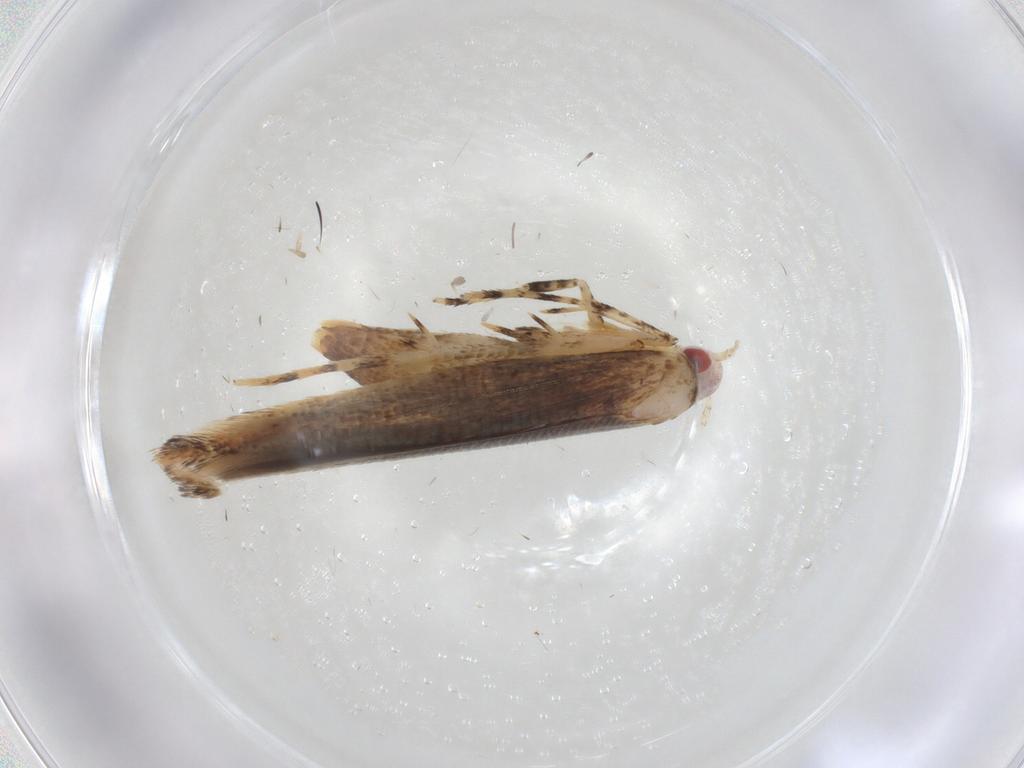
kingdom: Animalia
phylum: Arthropoda
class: Insecta
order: Lepidoptera
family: Cosmopterigidae
